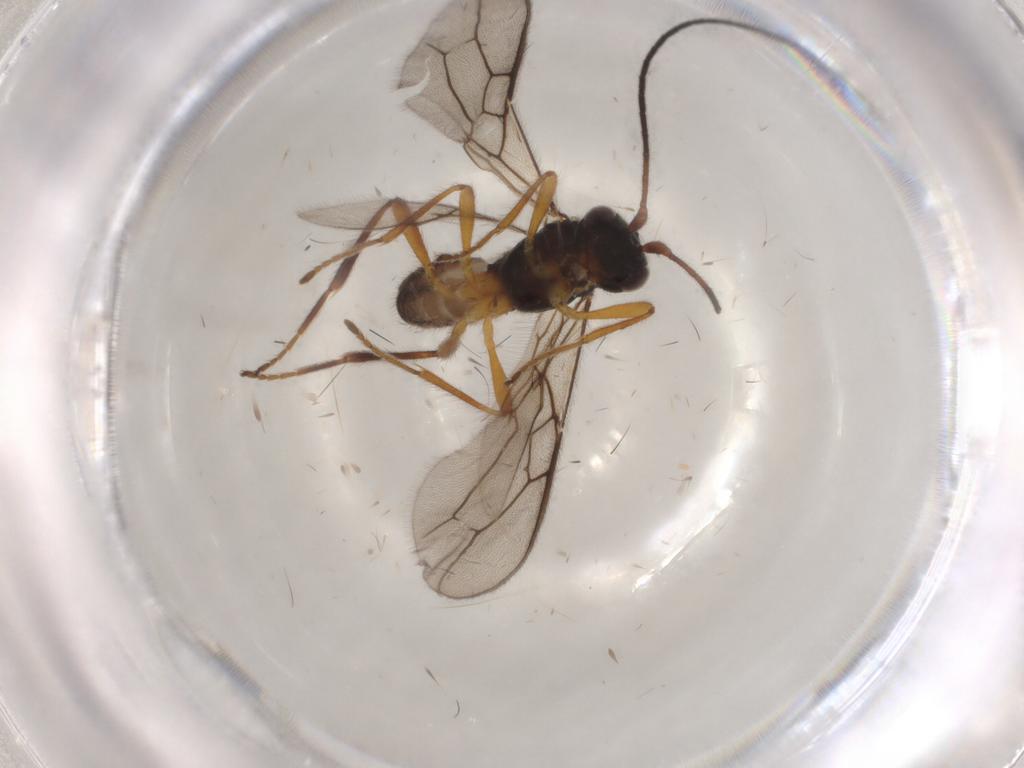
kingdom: Animalia
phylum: Arthropoda
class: Insecta
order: Hymenoptera
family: Braconidae
